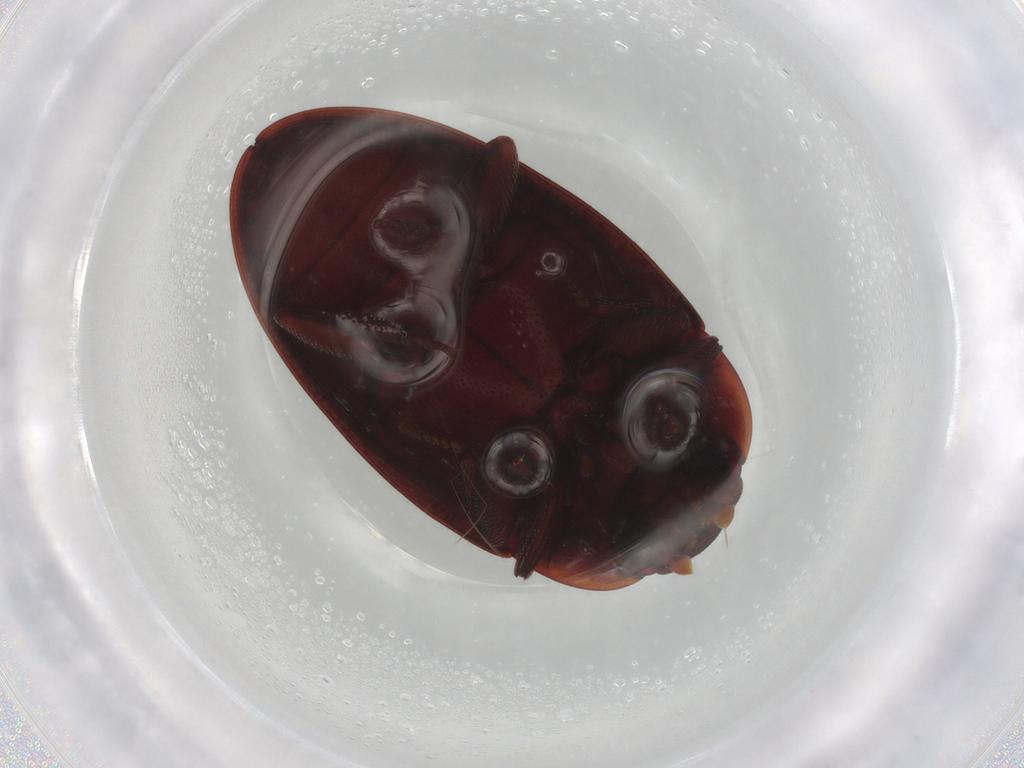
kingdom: Animalia
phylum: Arthropoda
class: Insecta
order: Coleoptera
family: Zopheridae
